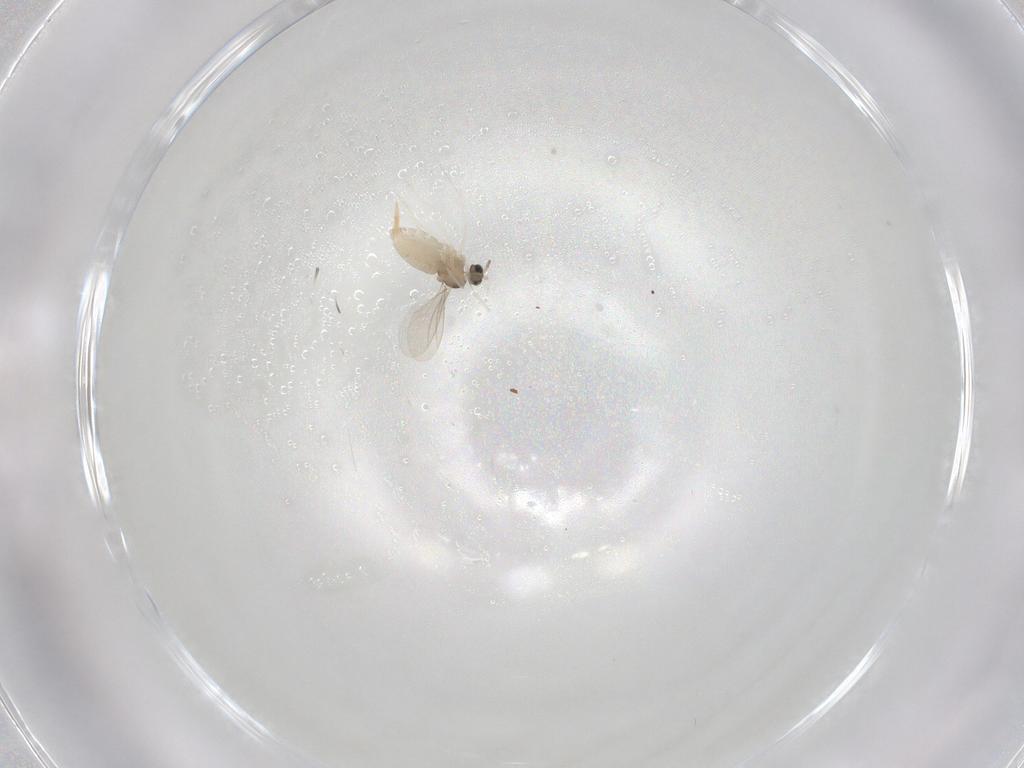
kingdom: Animalia
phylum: Arthropoda
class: Insecta
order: Diptera
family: Cecidomyiidae
